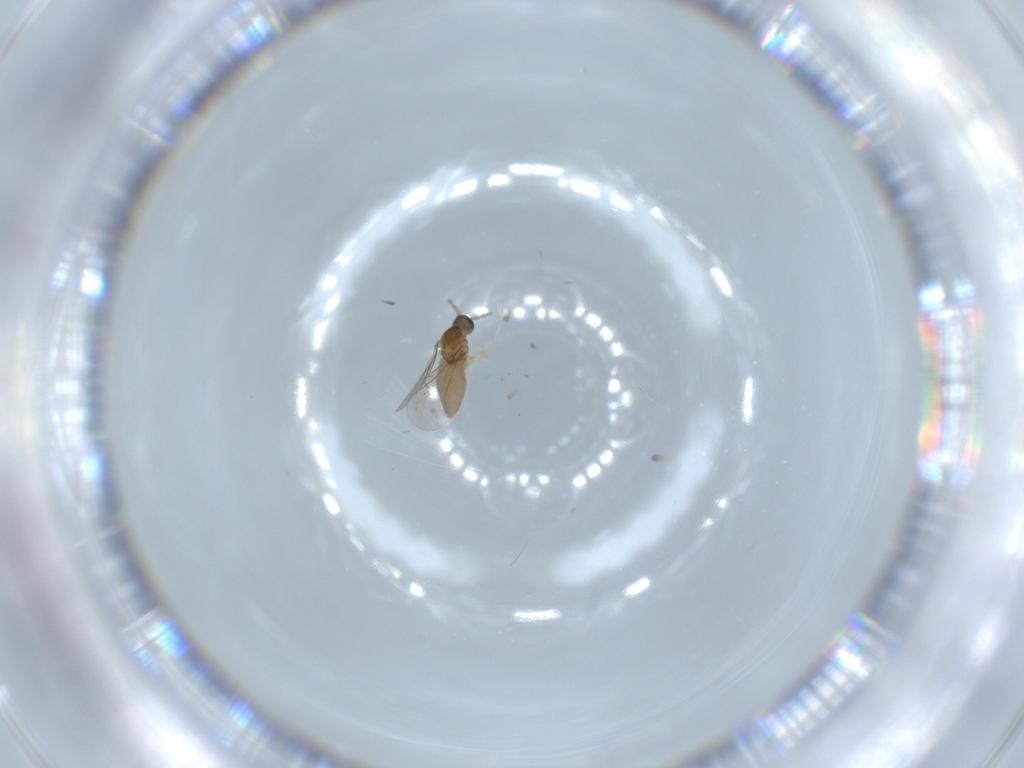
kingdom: Animalia
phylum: Arthropoda
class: Insecta
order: Diptera
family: Cecidomyiidae
